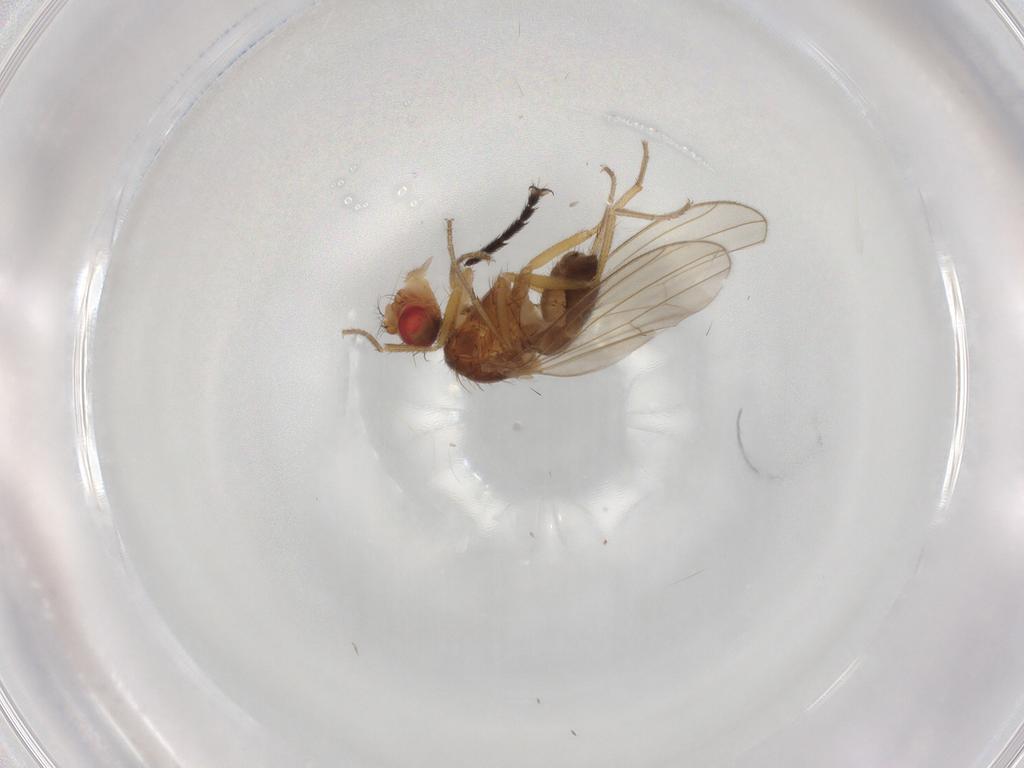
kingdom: Animalia
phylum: Arthropoda
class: Insecta
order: Diptera
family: Drosophilidae
